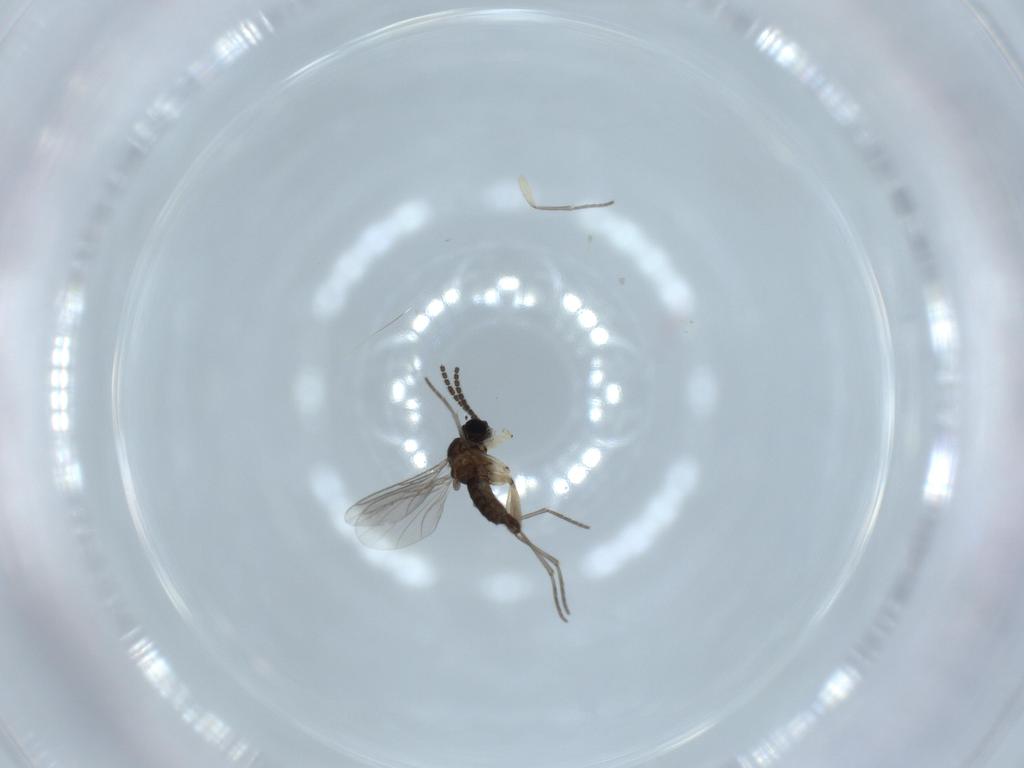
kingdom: Animalia
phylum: Arthropoda
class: Insecta
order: Diptera
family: Sciaridae
